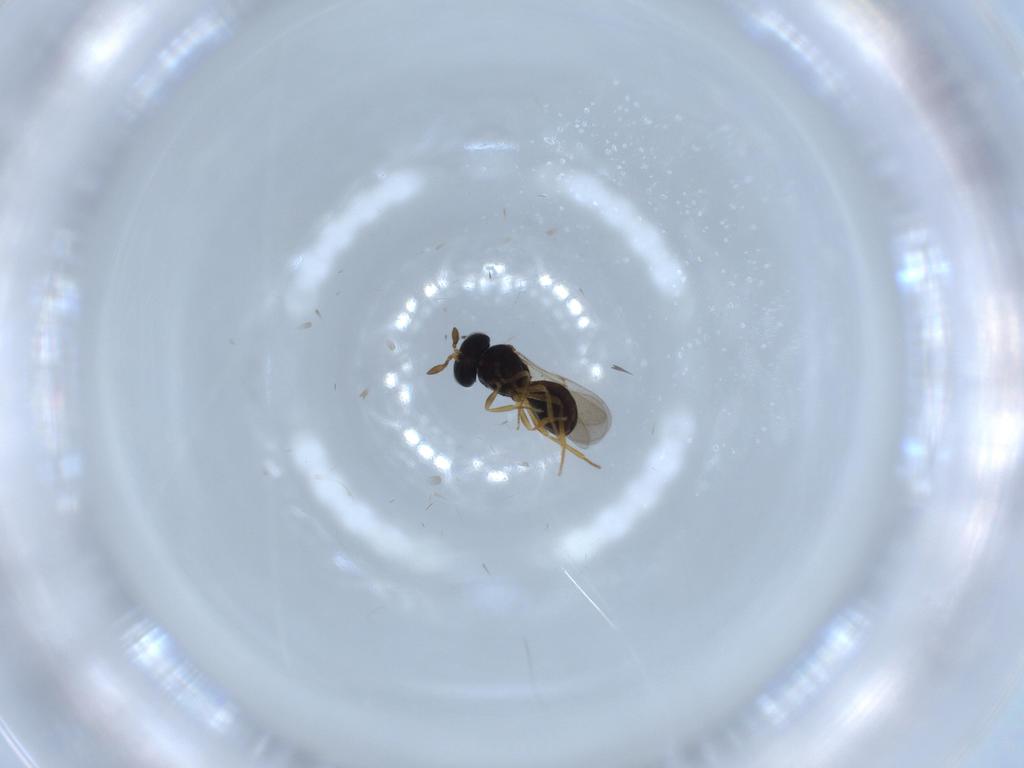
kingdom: Animalia
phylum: Arthropoda
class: Insecta
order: Hymenoptera
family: Scelionidae
